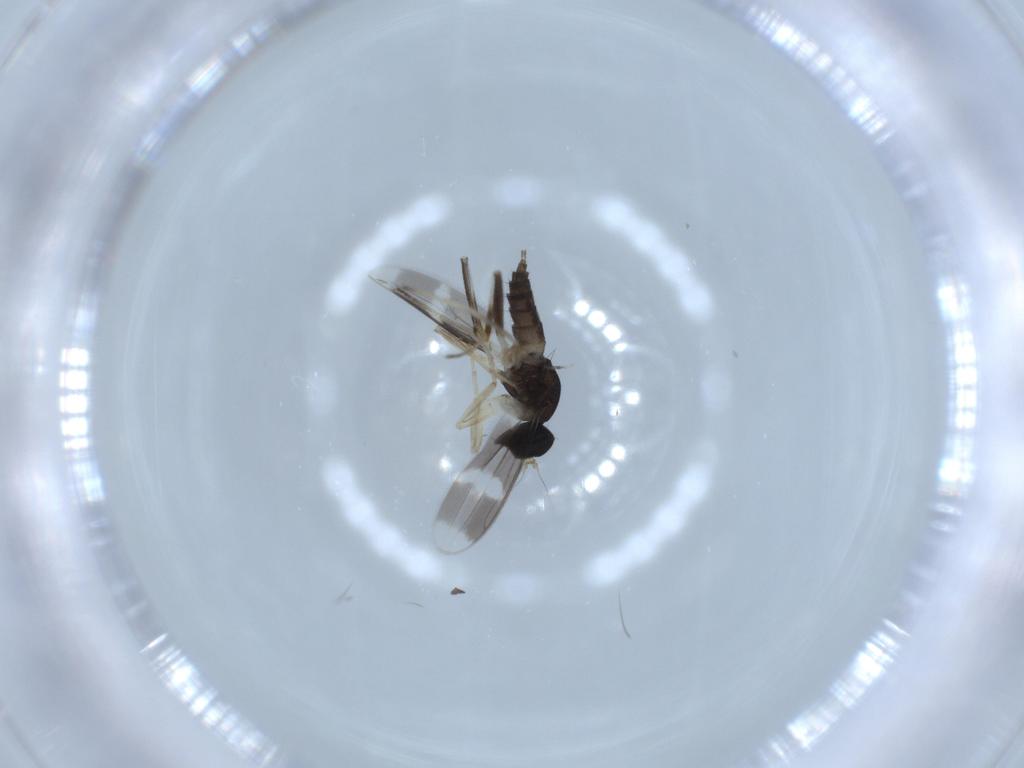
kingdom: Animalia
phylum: Arthropoda
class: Insecta
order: Diptera
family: Hybotidae
